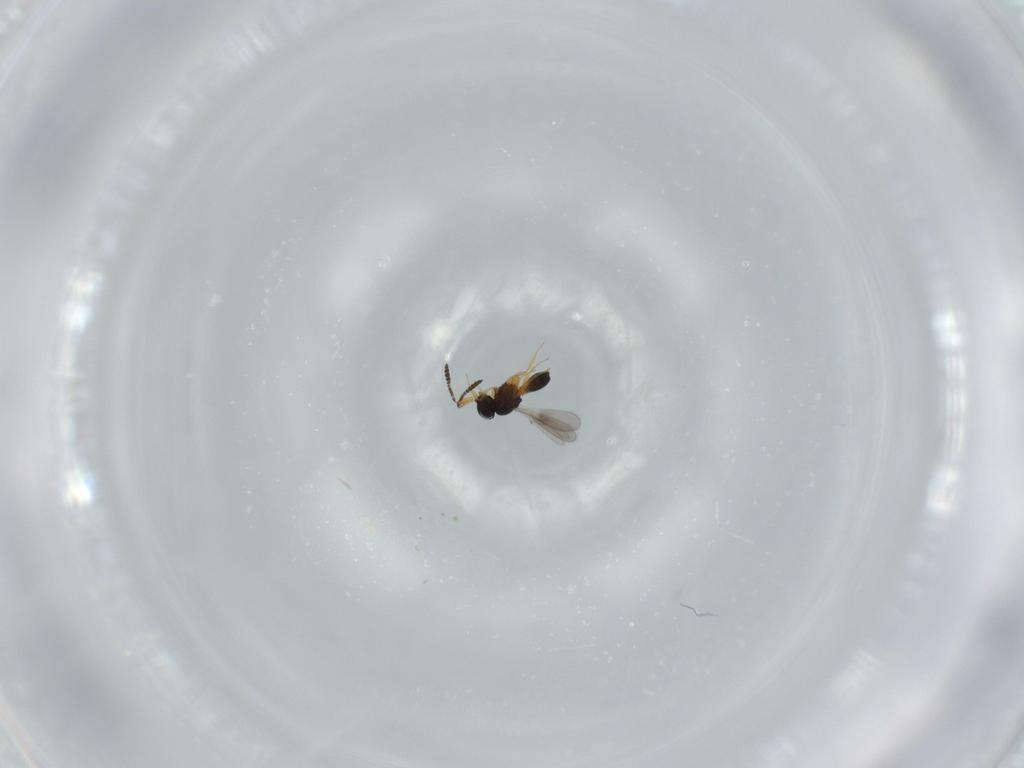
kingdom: Animalia
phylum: Arthropoda
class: Insecta
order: Hymenoptera
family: Scelionidae
